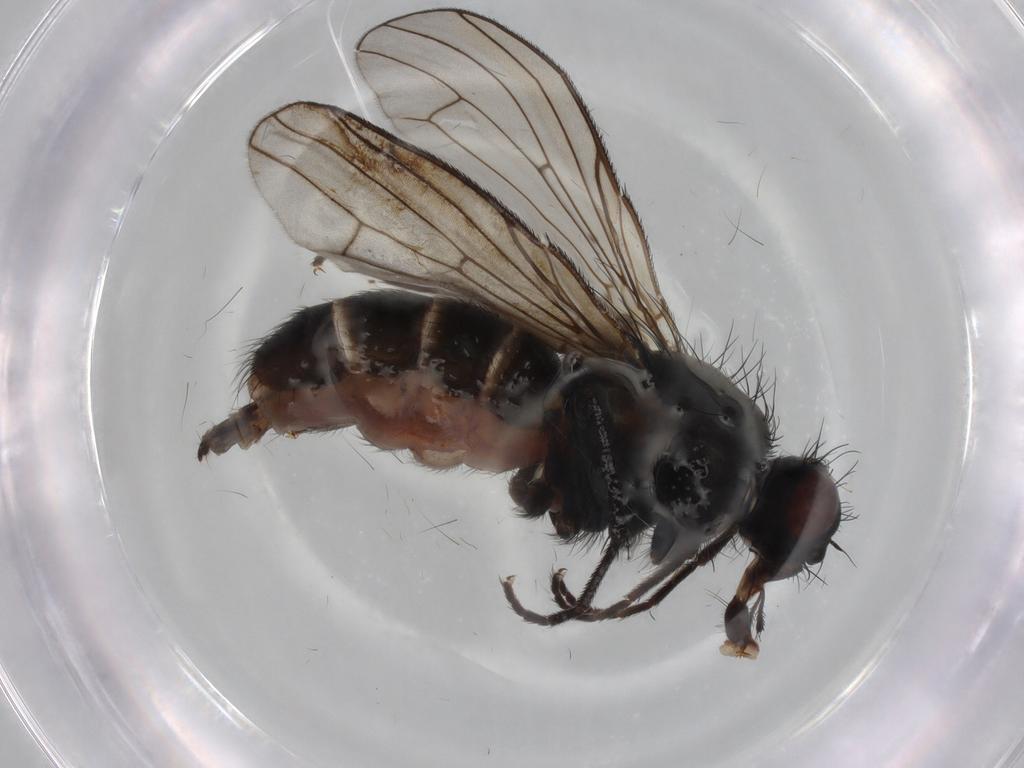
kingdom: Animalia
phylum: Arthropoda
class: Insecta
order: Diptera
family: Anthomyiidae
